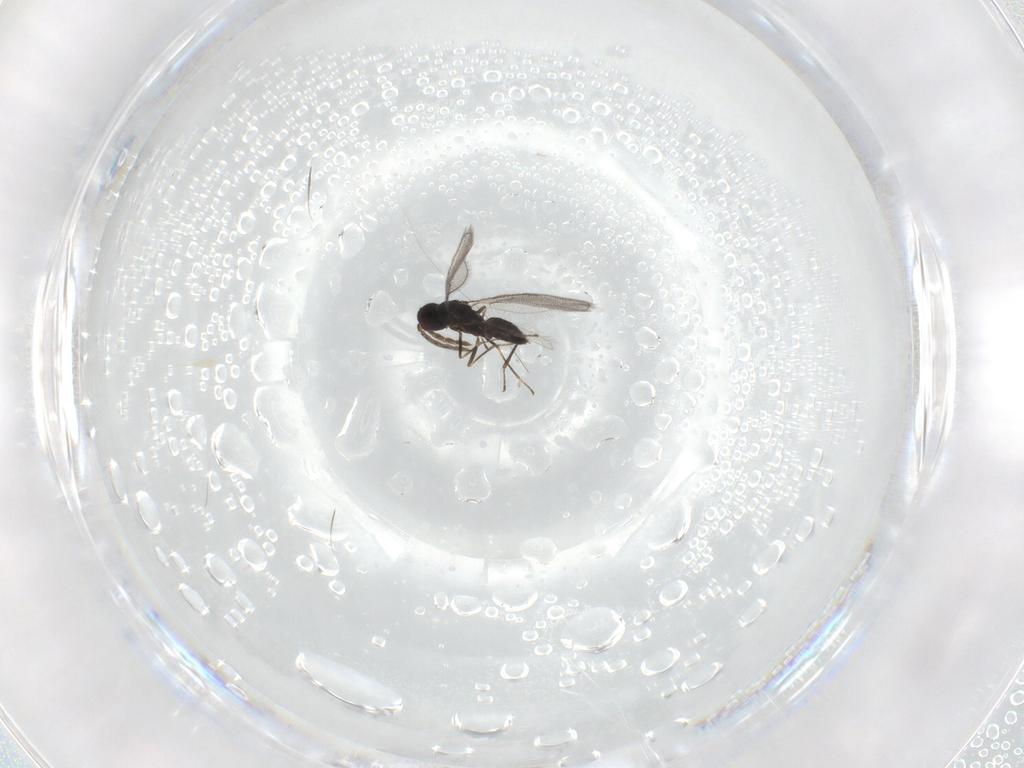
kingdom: Animalia
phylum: Arthropoda
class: Insecta
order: Hymenoptera
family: Eulophidae
